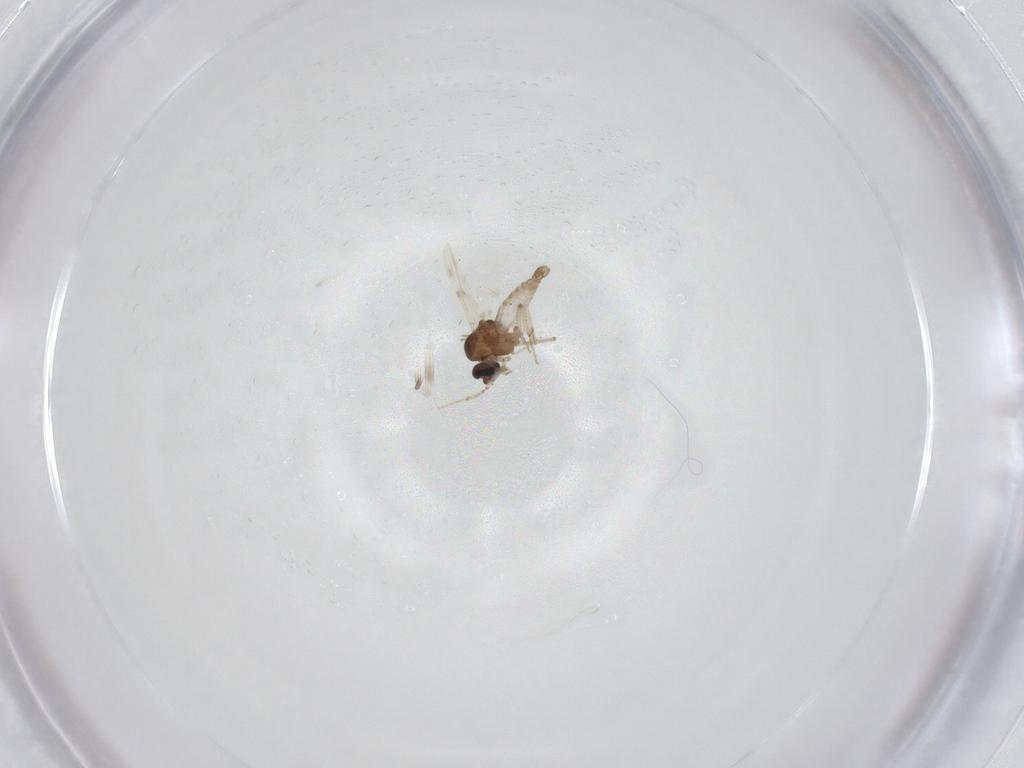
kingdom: Animalia
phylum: Arthropoda
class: Insecta
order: Diptera
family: Ceratopogonidae
